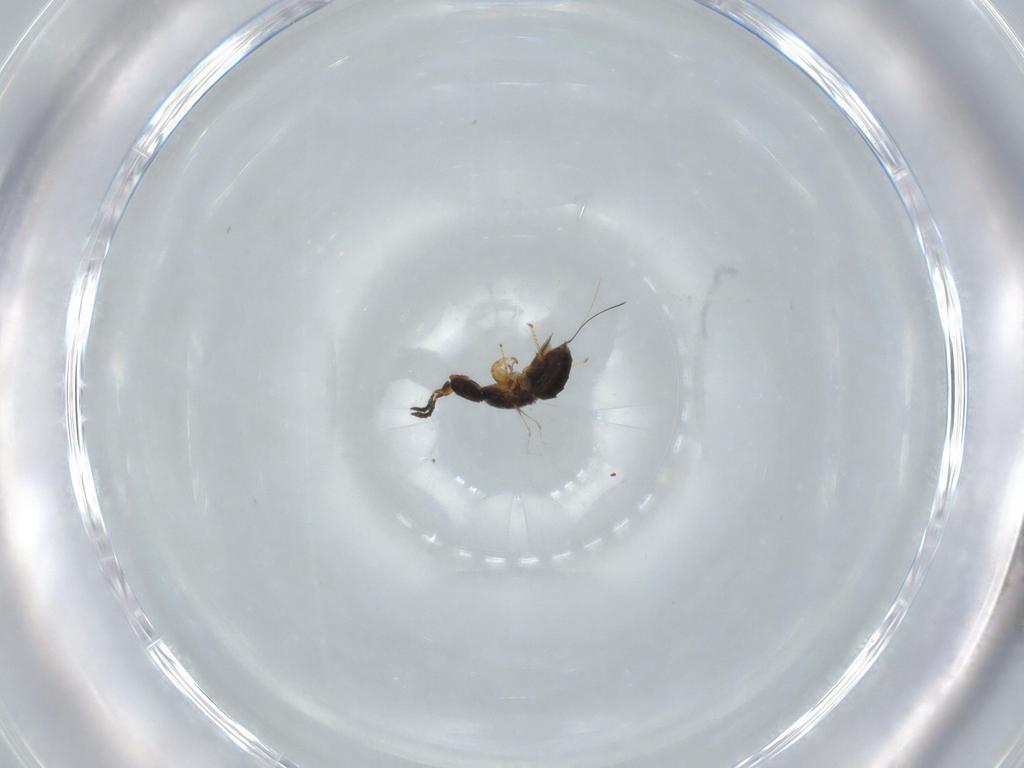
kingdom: Animalia
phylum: Arthropoda
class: Insecta
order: Hymenoptera
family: Agaonidae
